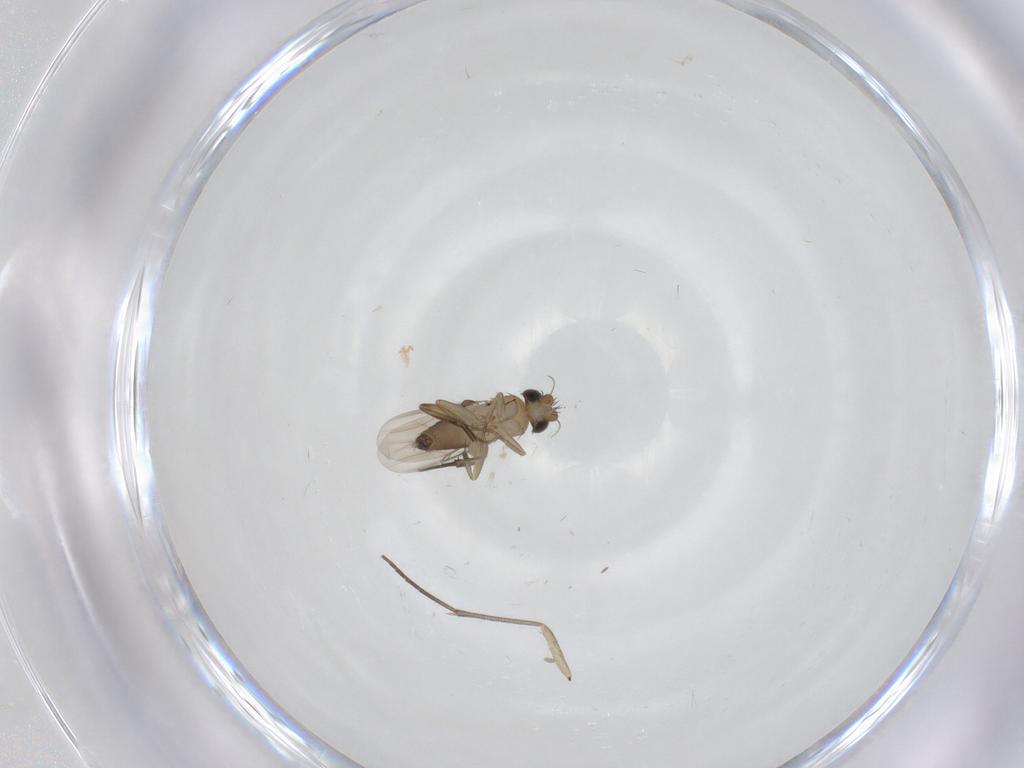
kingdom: Animalia
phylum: Arthropoda
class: Insecta
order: Diptera
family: Phoridae
